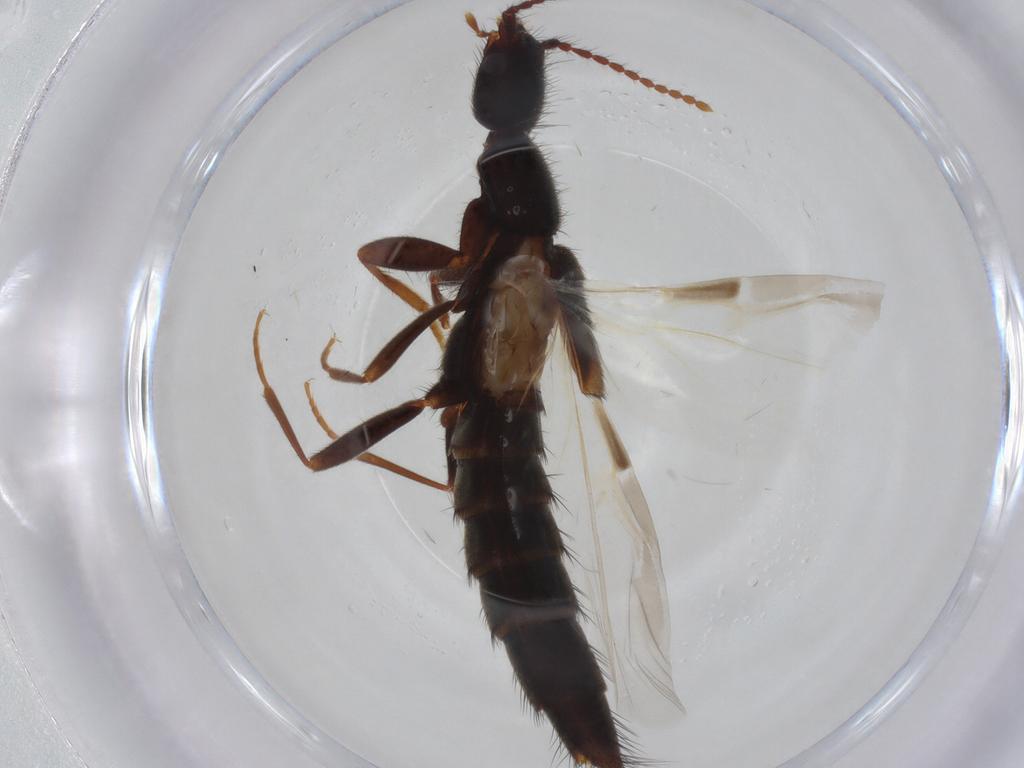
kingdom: Animalia
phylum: Arthropoda
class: Insecta
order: Coleoptera
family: Staphylinidae
